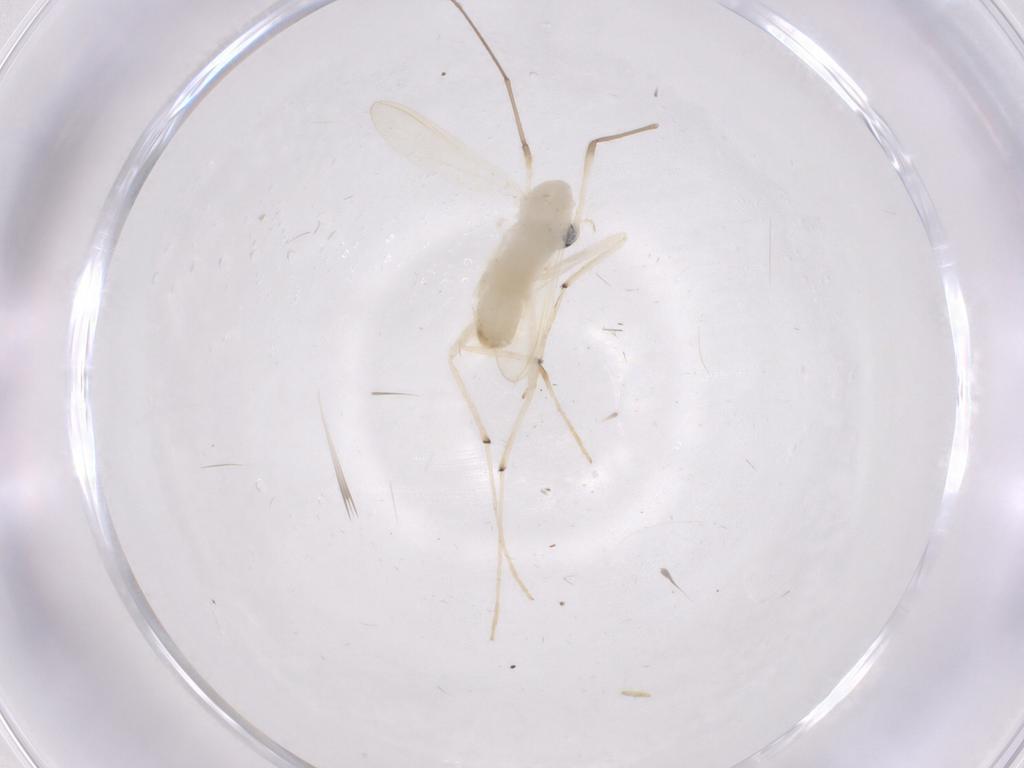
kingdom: Animalia
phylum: Arthropoda
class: Insecta
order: Diptera
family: Chironomidae
